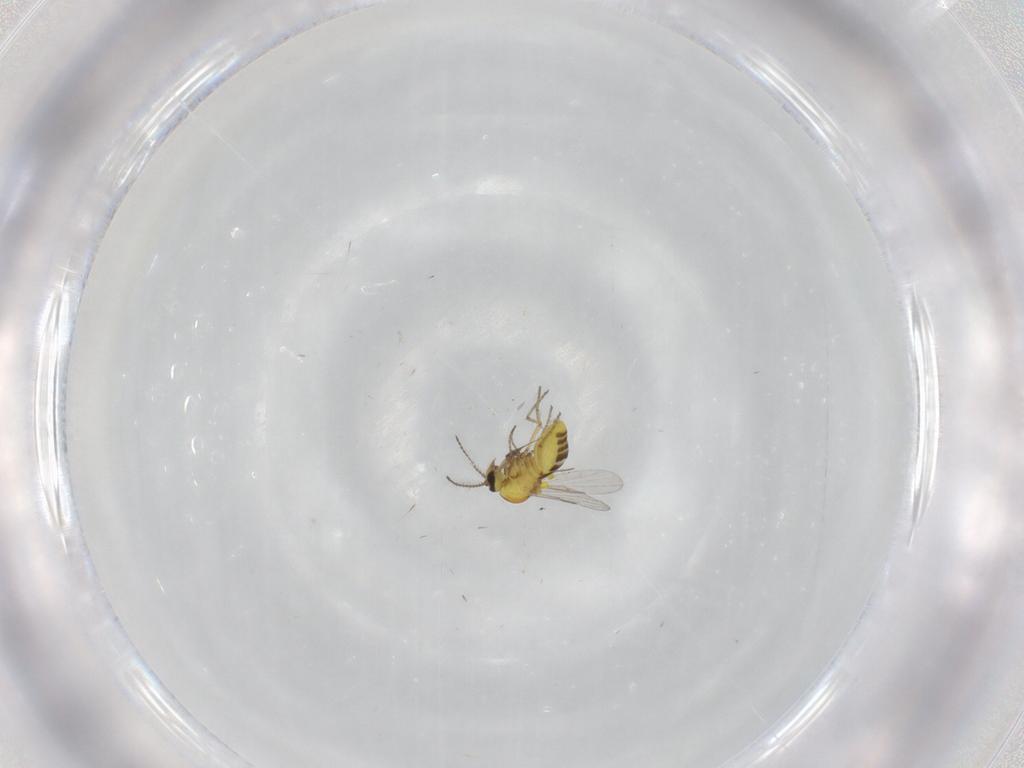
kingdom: Animalia
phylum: Arthropoda
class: Insecta
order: Diptera
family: Ceratopogonidae
